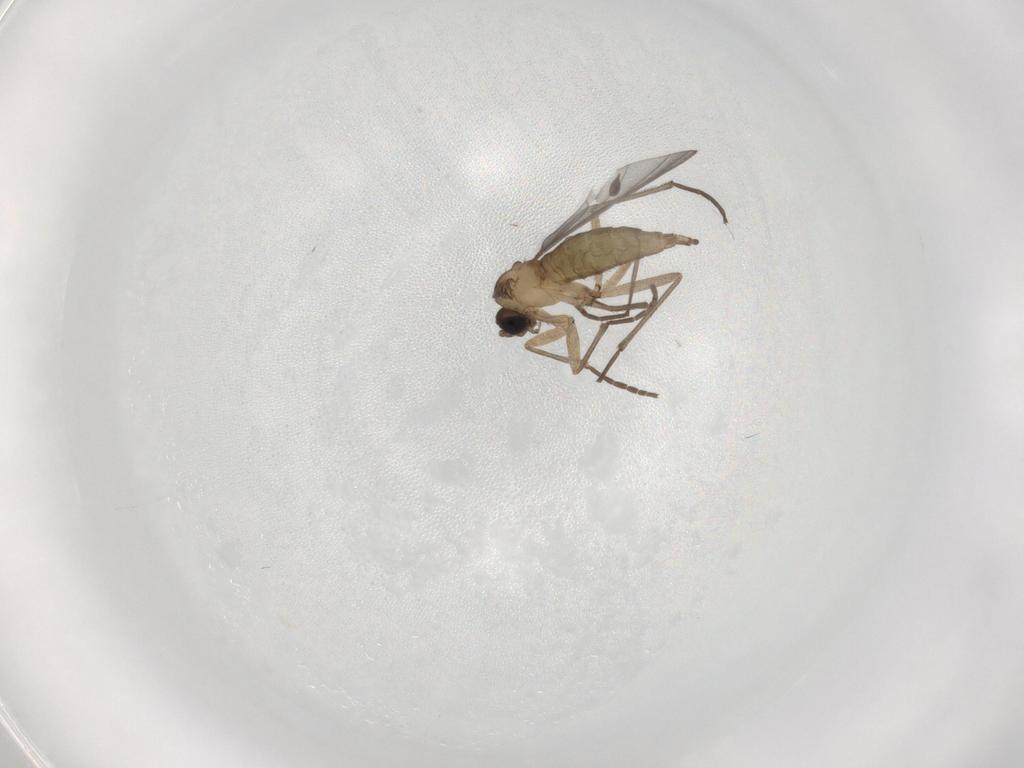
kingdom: Animalia
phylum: Arthropoda
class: Insecta
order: Diptera
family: Sciaridae
